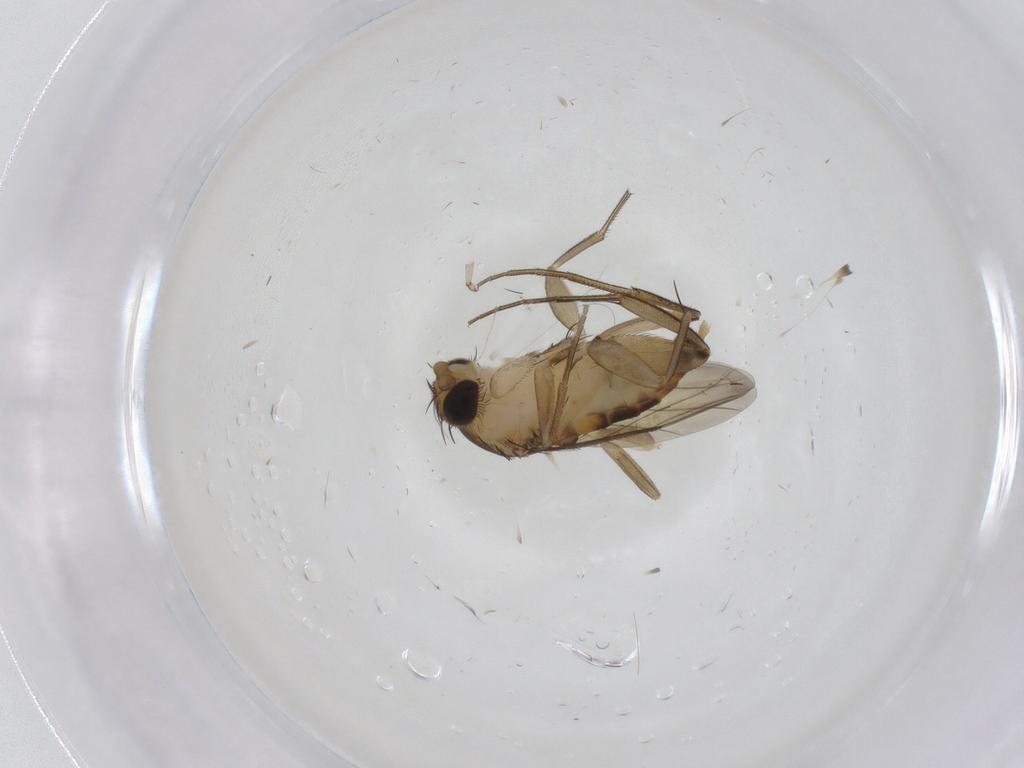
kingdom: Animalia
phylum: Arthropoda
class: Insecta
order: Diptera
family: Phoridae
